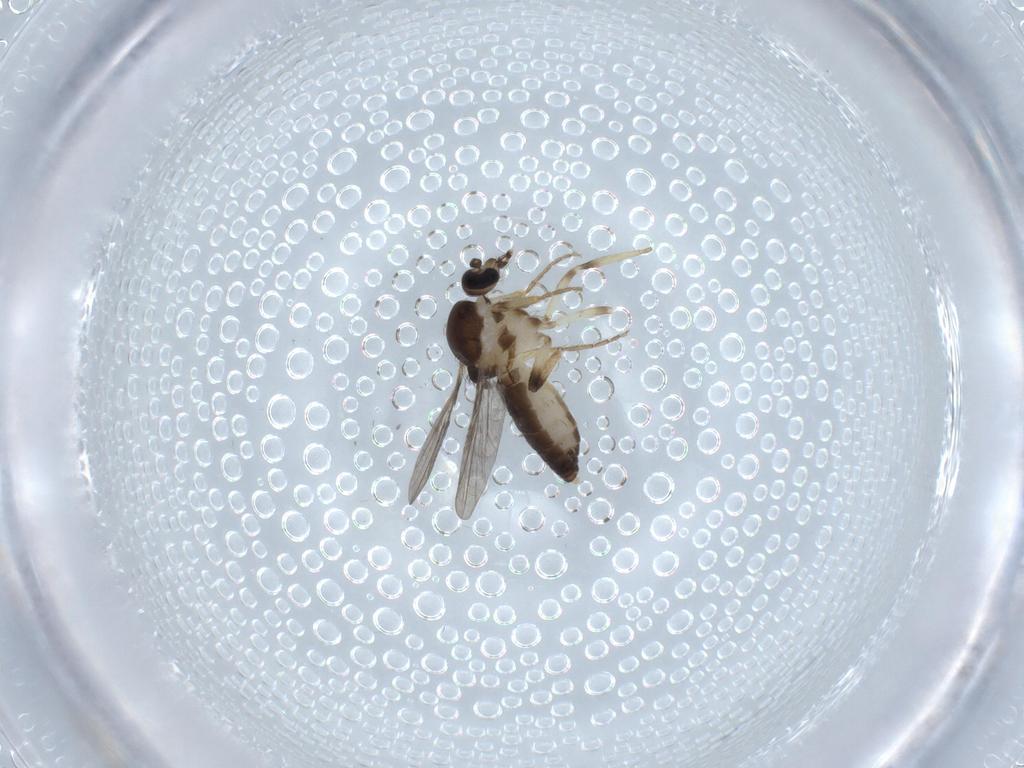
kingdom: Animalia
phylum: Arthropoda
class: Insecta
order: Diptera
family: Ceratopogonidae
